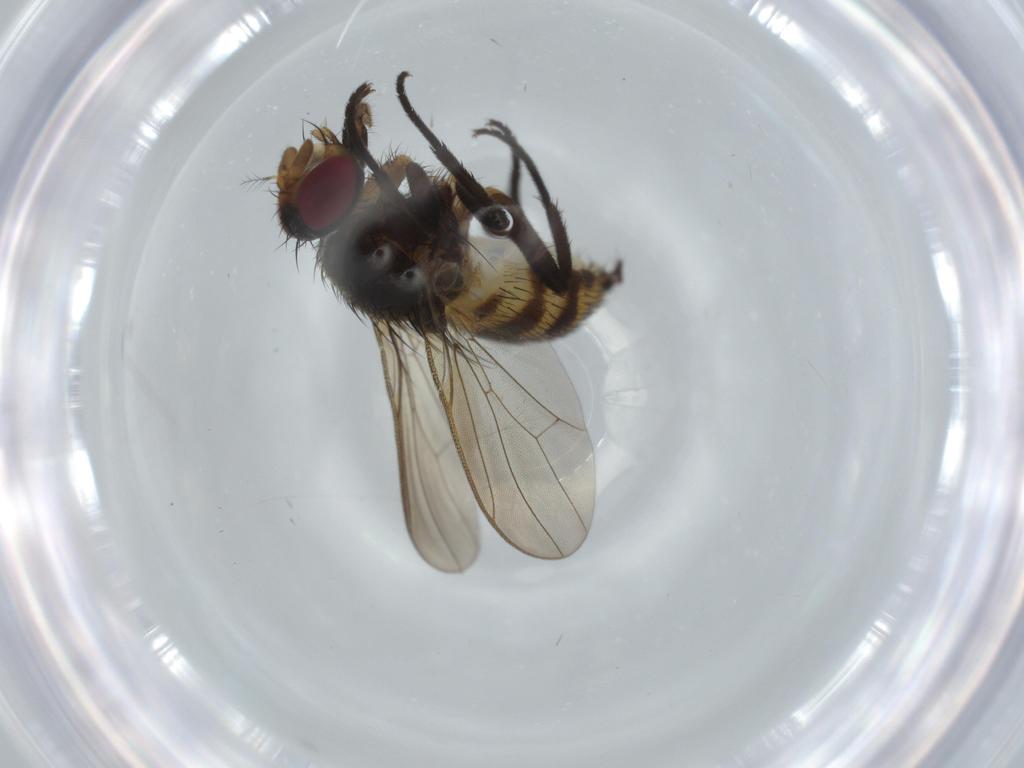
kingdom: Animalia
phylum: Arthropoda
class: Insecta
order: Diptera
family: Anthomyiidae
